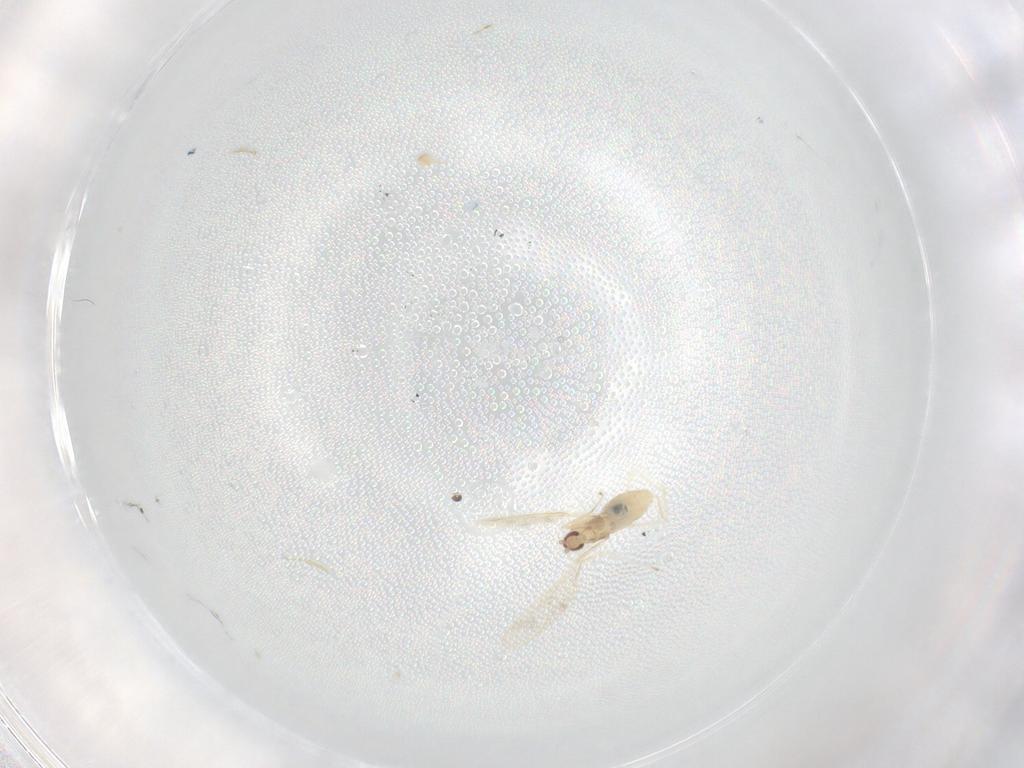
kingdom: Animalia
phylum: Arthropoda
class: Insecta
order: Diptera
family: Cecidomyiidae
